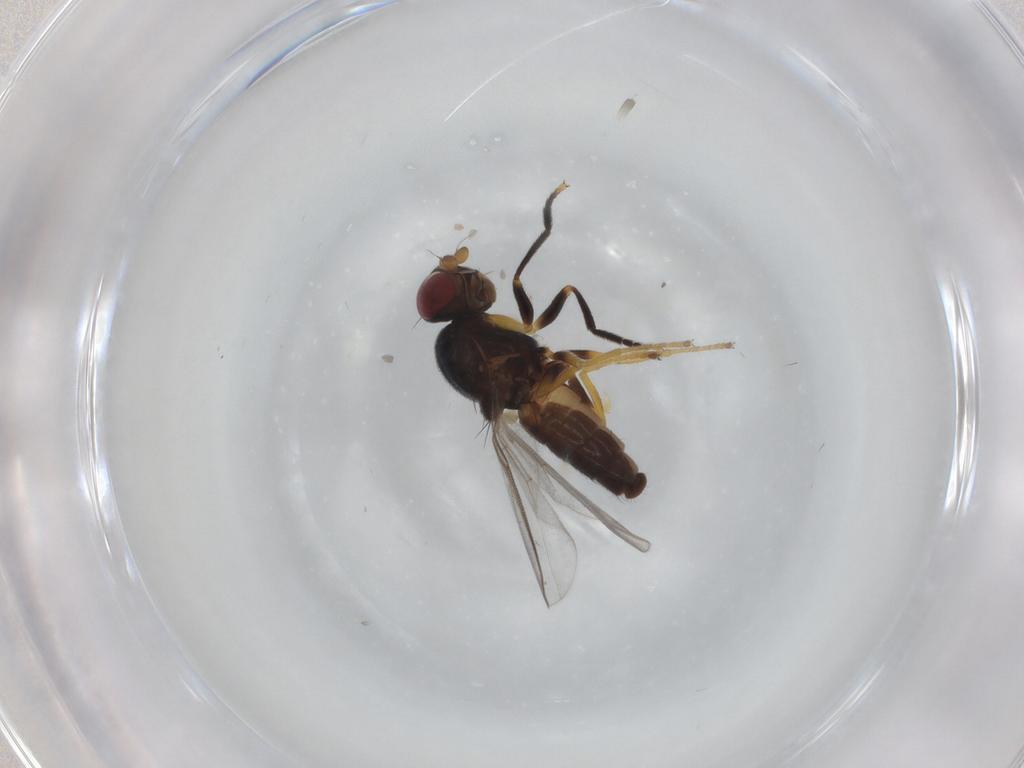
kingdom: Animalia
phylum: Arthropoda
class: Insecta
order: Diptera
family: Chloropidae
